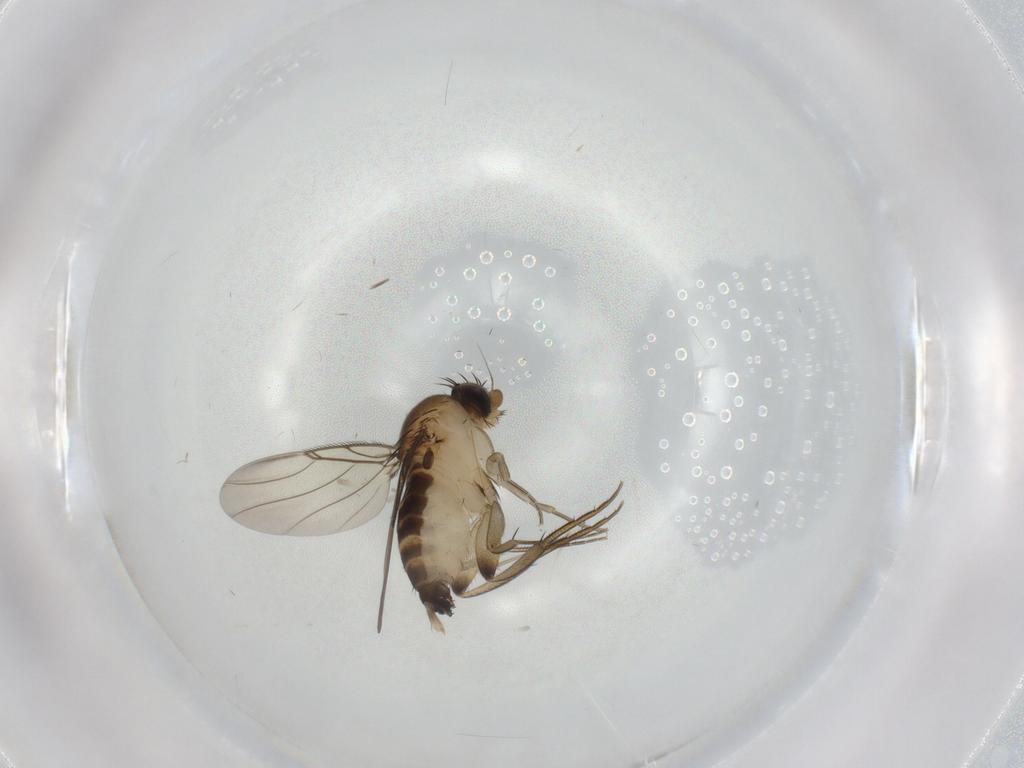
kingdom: Animalia
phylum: Arthropoda
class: Insecta
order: Diptera
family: Phoridae
